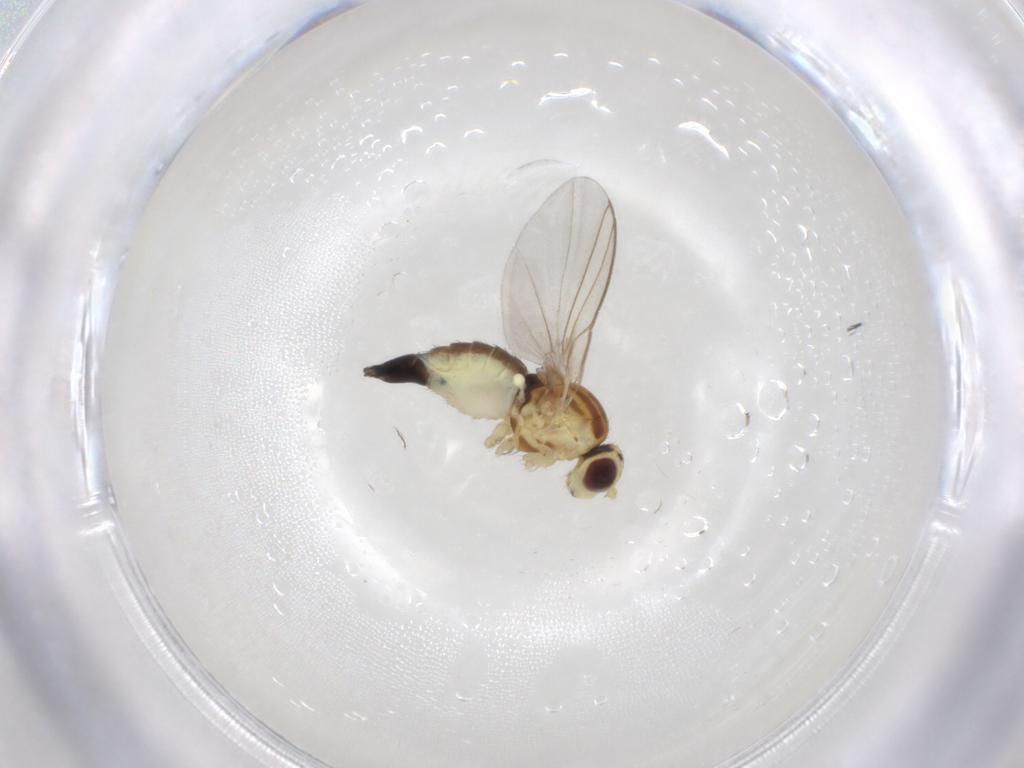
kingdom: Animalia
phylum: Arthropoda
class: Insecta
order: Diptera
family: Agromyzidae
